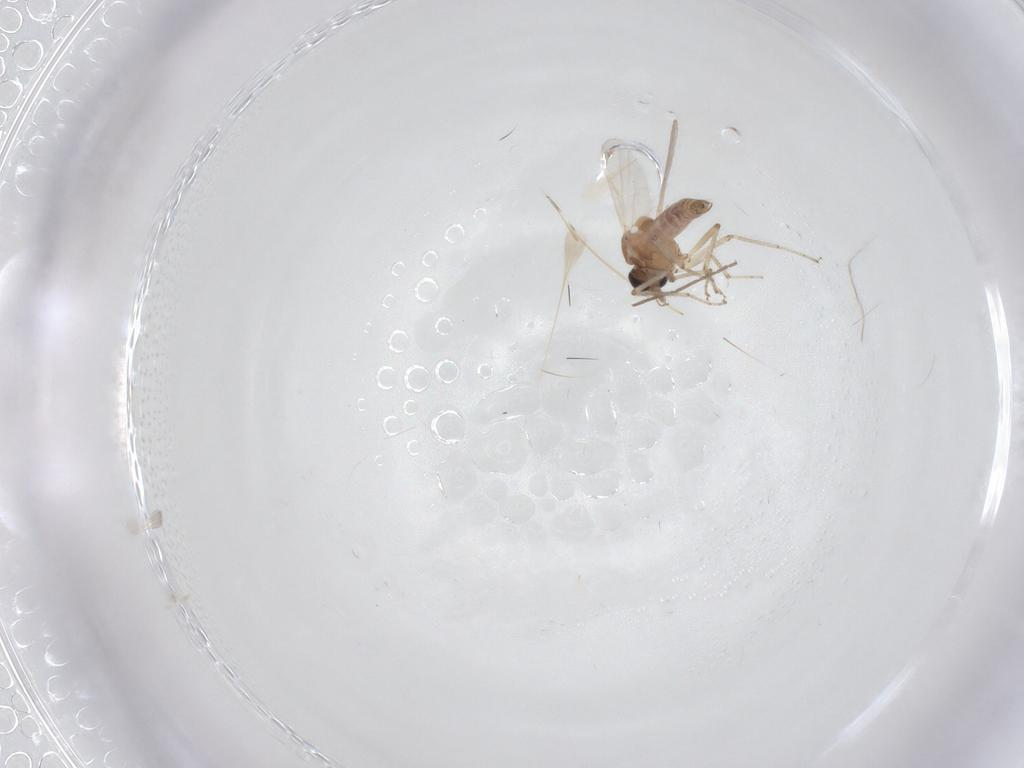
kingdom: Animalia
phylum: Arthropoda
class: Insecta
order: Diptera
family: Ceratopogonidae
